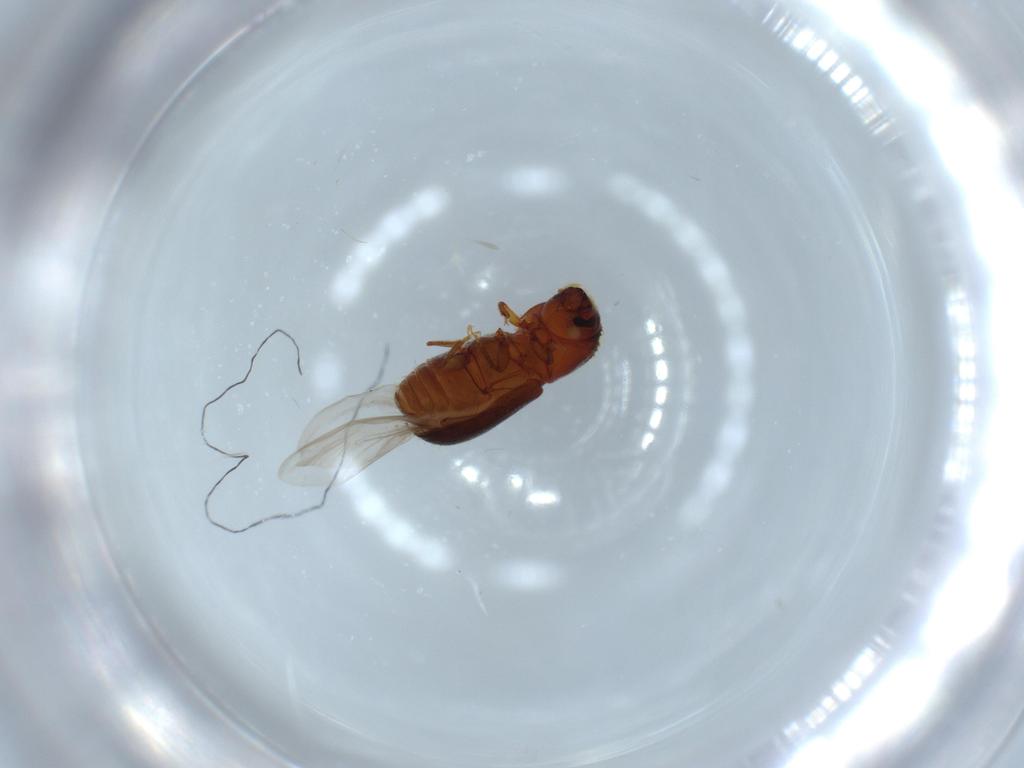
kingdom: Animalia
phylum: Arthropoda
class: Insecta
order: Coleoptera
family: Curculionidae
